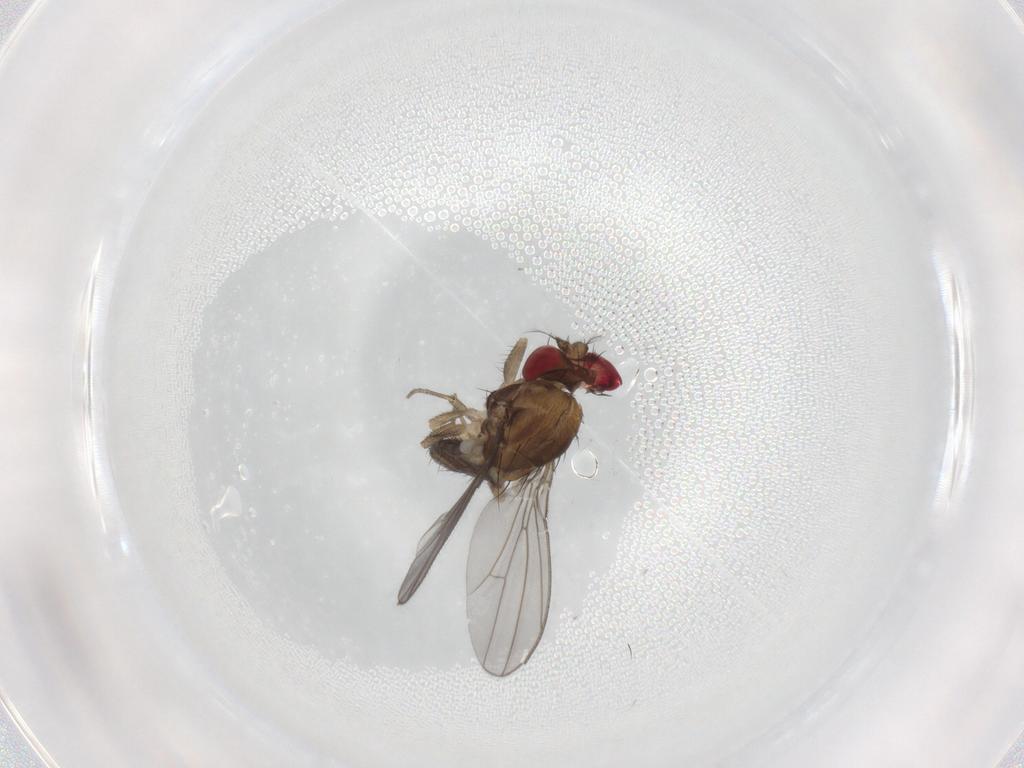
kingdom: Animalia
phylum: Arthropoda
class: Insecta
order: Diptera
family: Drosophilidae
